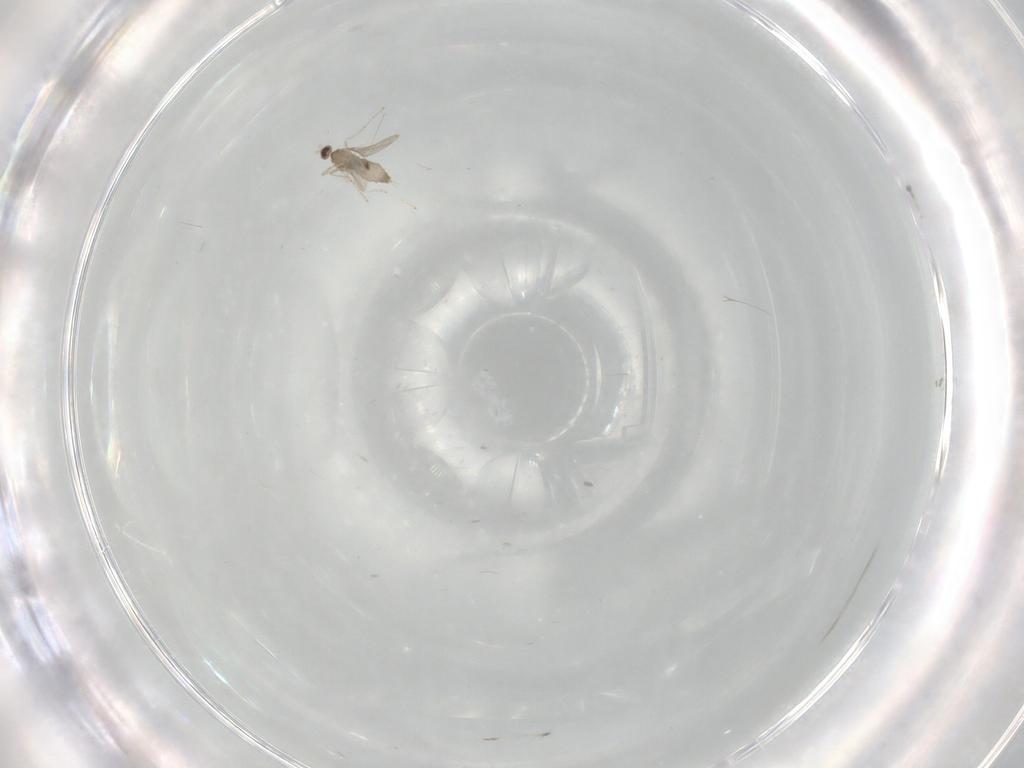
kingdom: Animalia
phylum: Arthropoda
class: Insecta
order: Diptera
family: Cecidomyiidae
